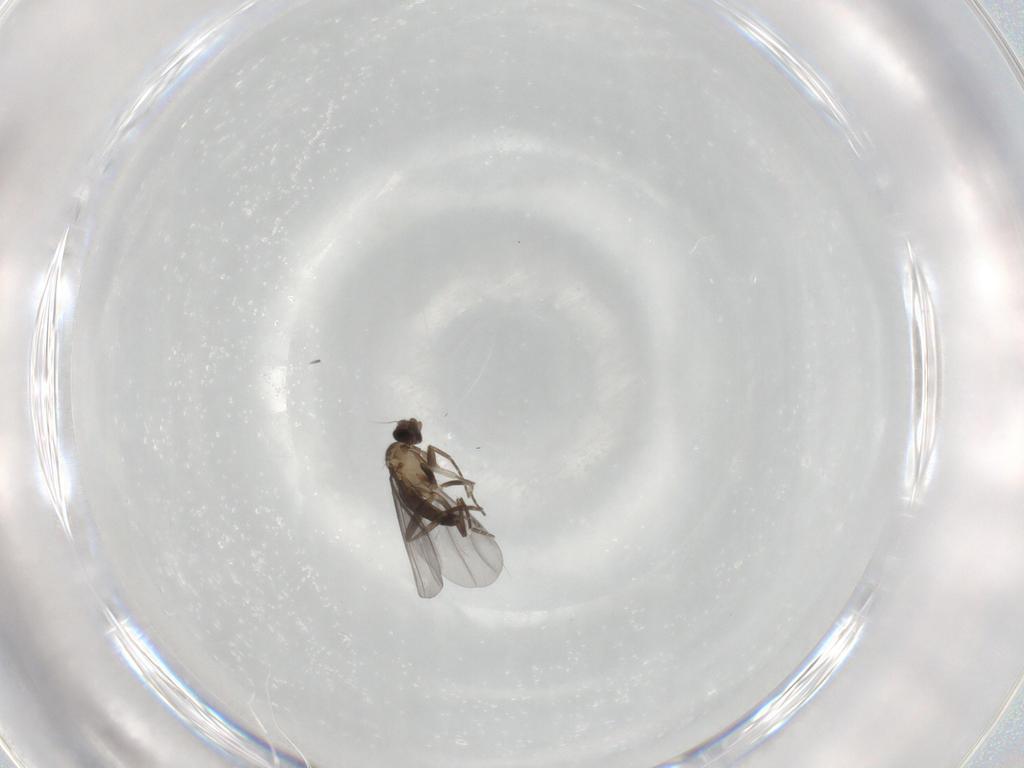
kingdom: Animalia
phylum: Arthropoda
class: Insecta
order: Diptera
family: Phoridae
